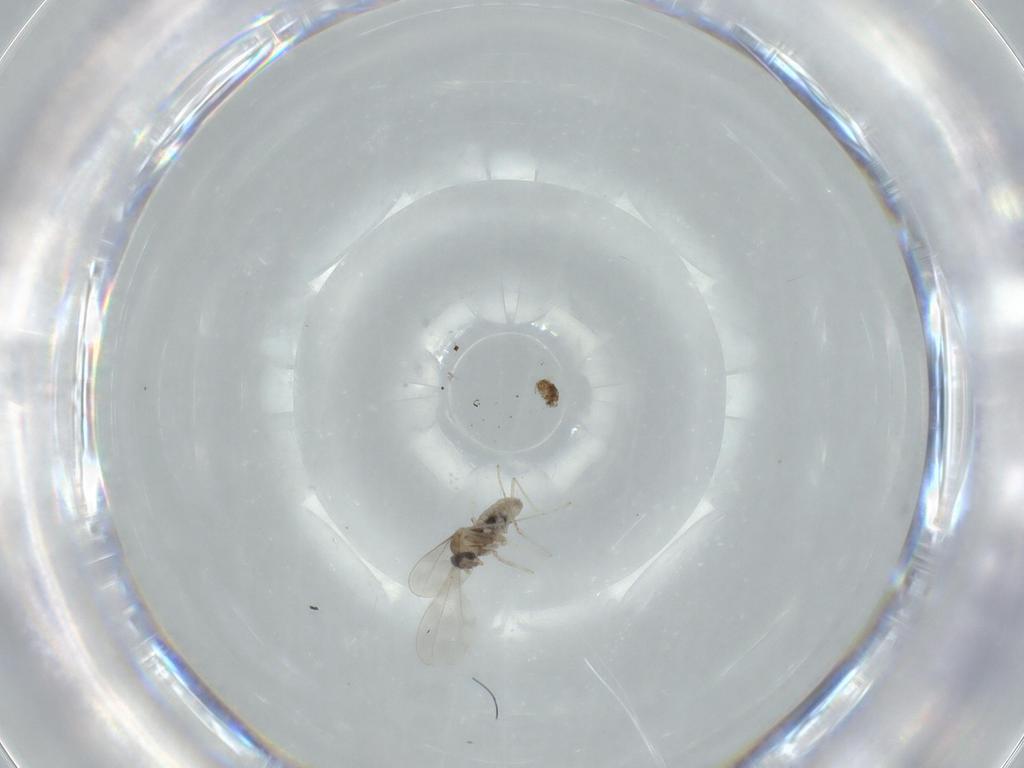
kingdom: Animalia
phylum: Arthropoda
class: Insecta
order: Diptera
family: Cecidomyiidae
